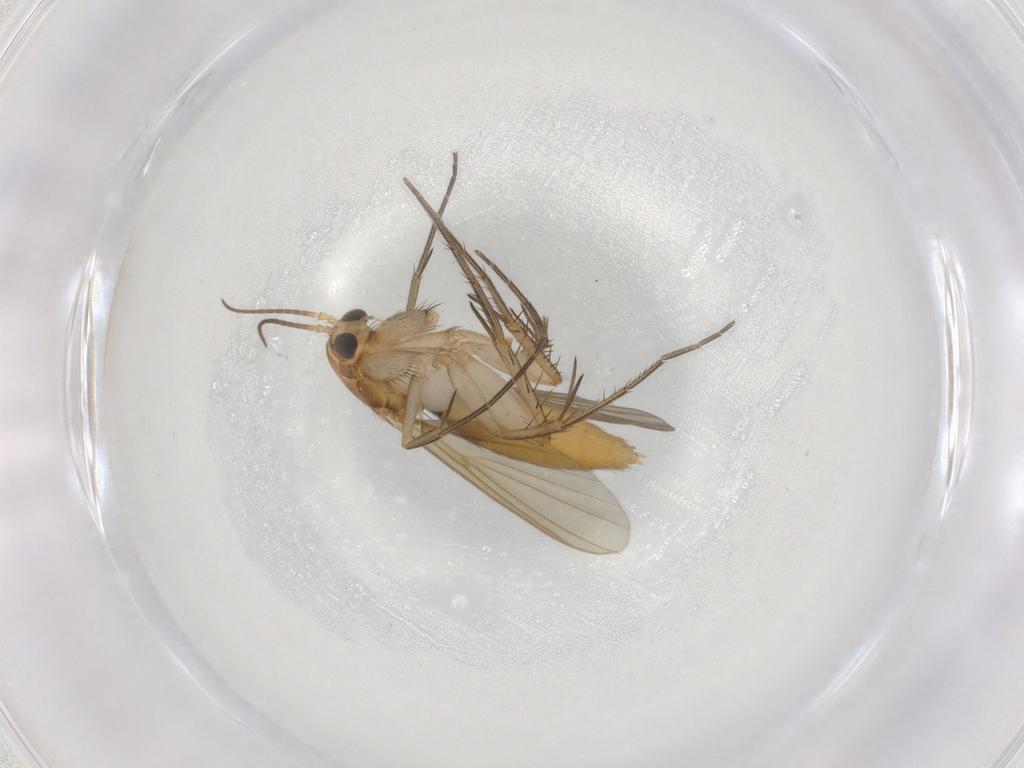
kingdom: Animalia
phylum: Arthropoda
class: Insecta
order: Diptera
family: Mycetophilidae
